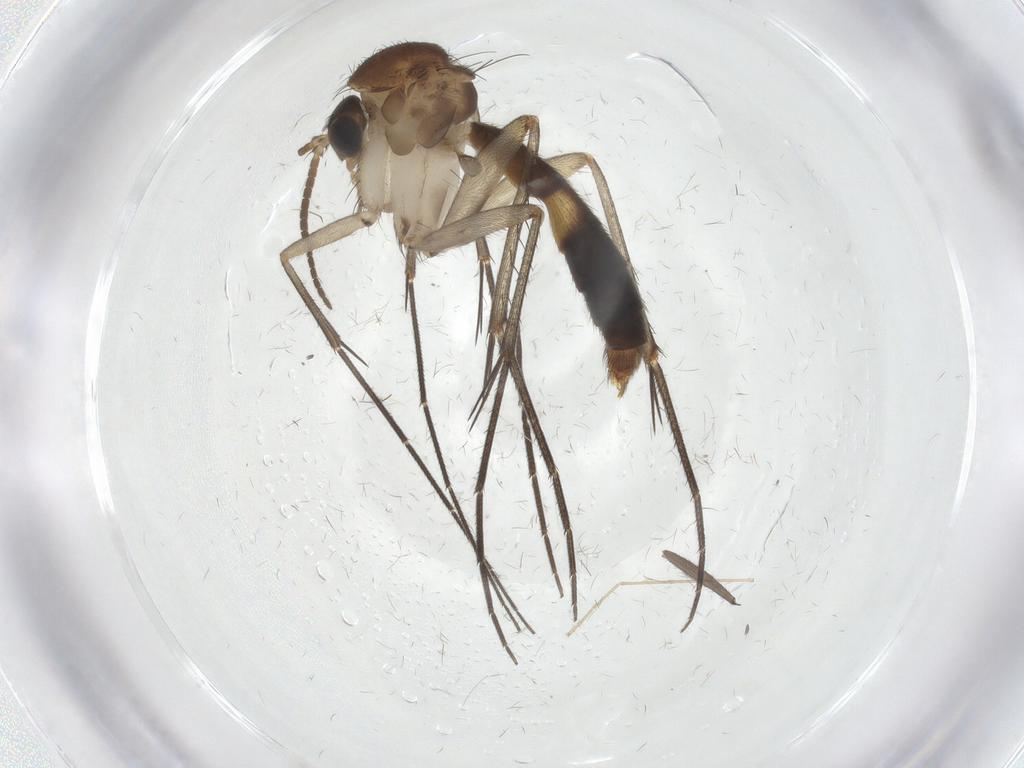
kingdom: Animalia
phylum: Arthropoda
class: Insecta
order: Diptera
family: Mycetophilidae
